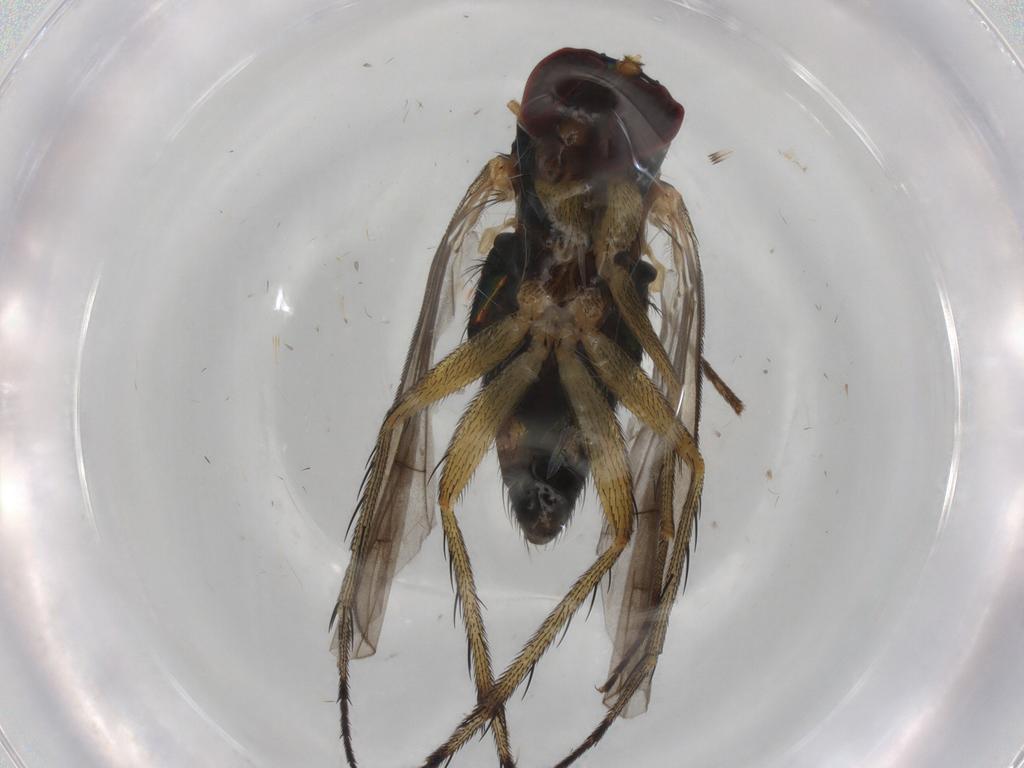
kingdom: Animalia
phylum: Arthropoda
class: Insecta
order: Diptera
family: Dolichopodidae
